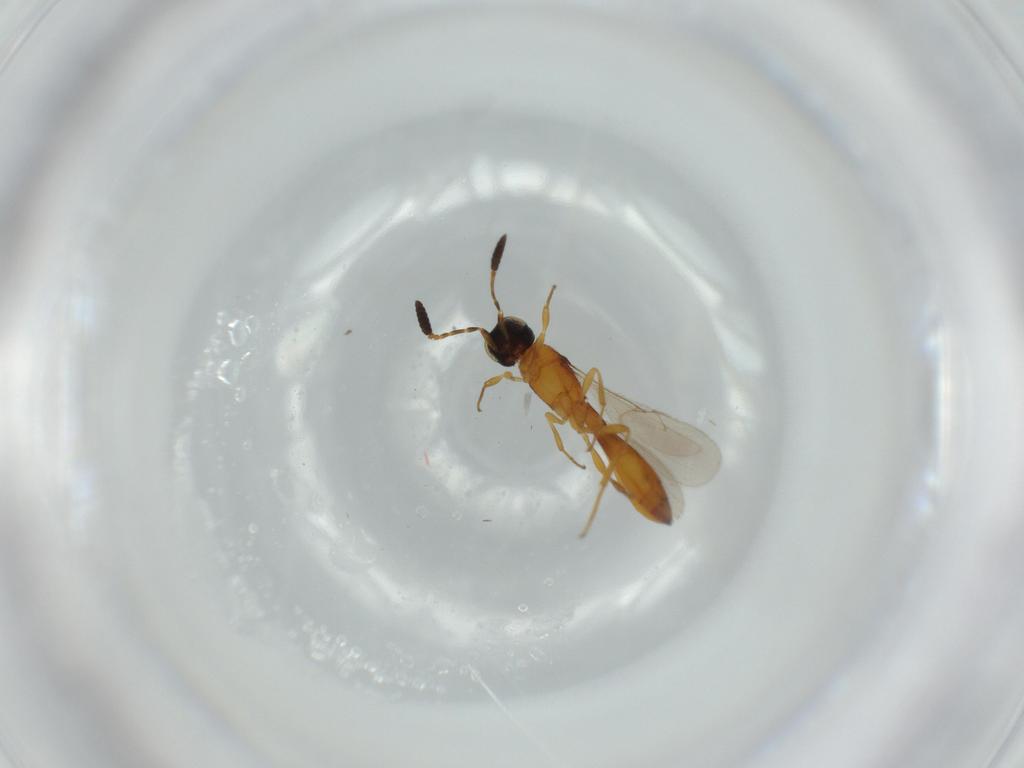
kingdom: Animalia
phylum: Arthropoda
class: Insecta
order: Hymenoptera
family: Scelionidae
